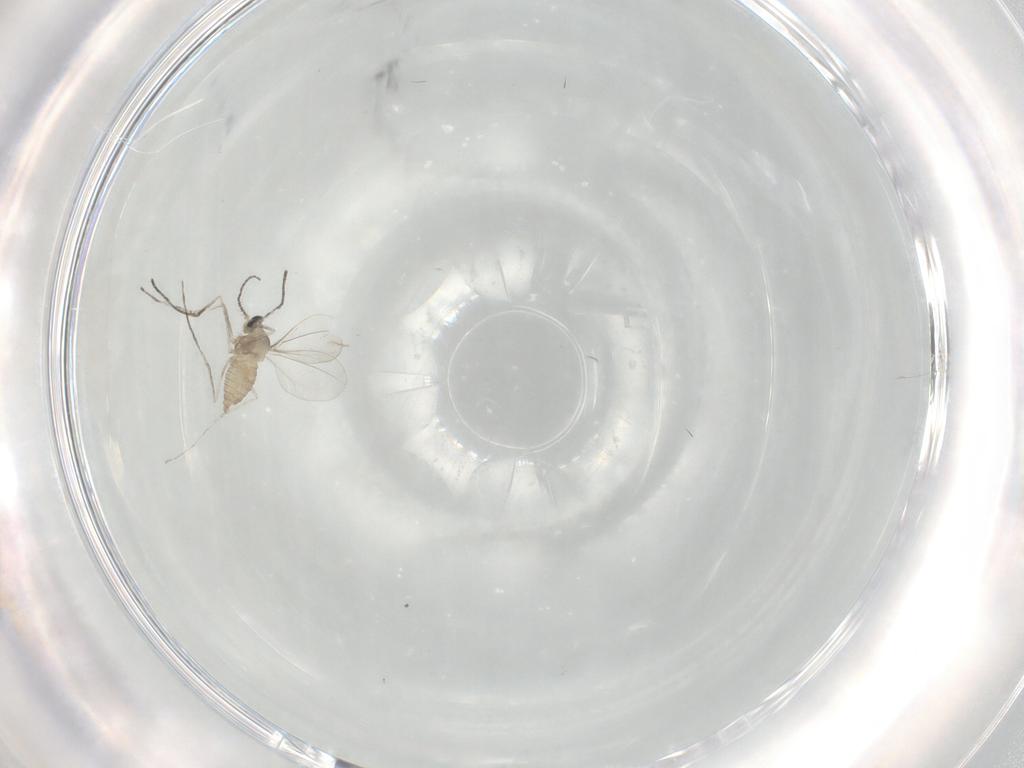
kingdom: Animalia
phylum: Arthropoda
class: Insecta
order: Diptera
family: Cecidomyiidae
